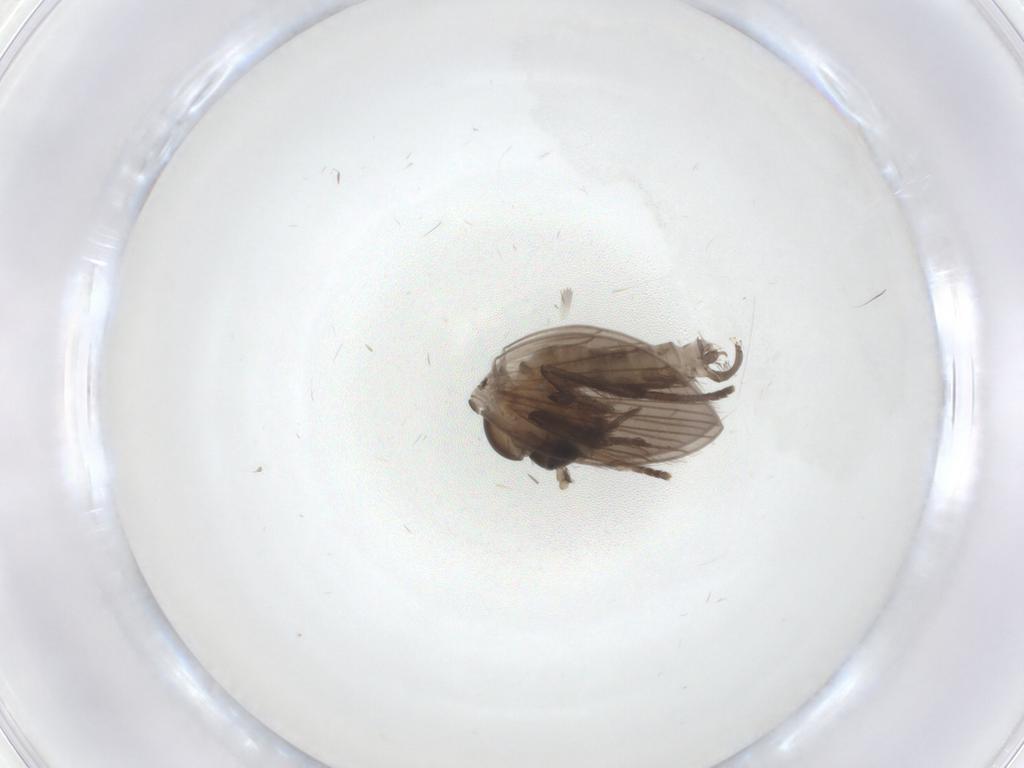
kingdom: Animalia
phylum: Arthropoda
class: Insecta
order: Diptera
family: Psychodidae
